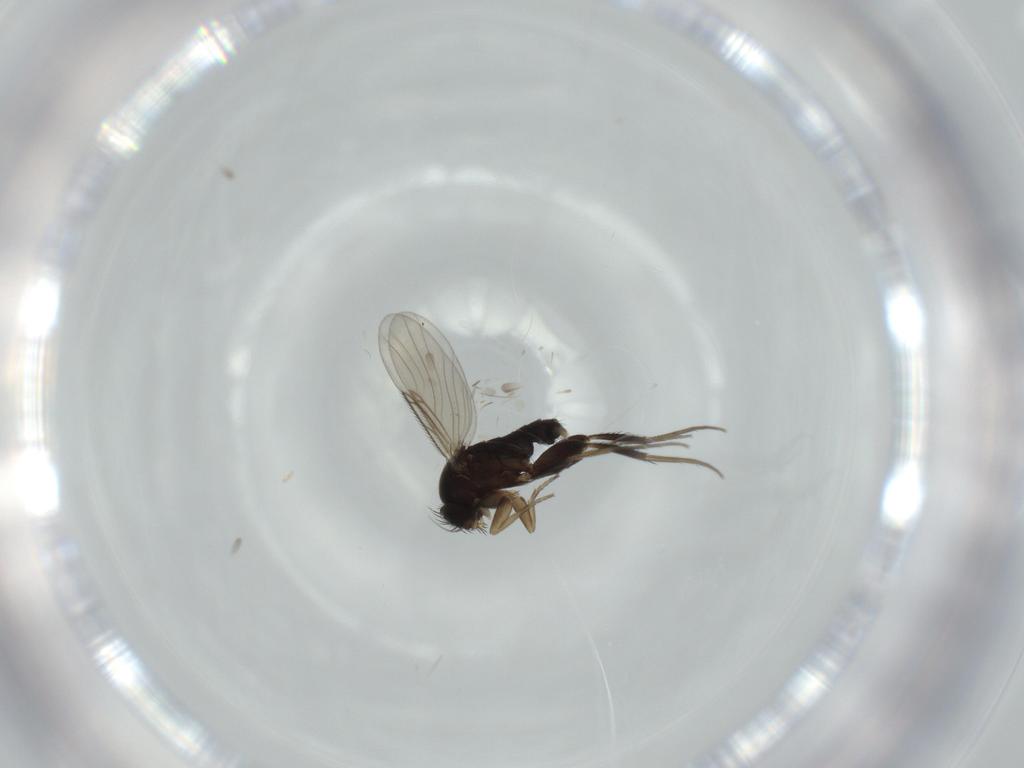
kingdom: Animalia
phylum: Arthropoda
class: Insecta
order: Diptera
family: Phoridae
